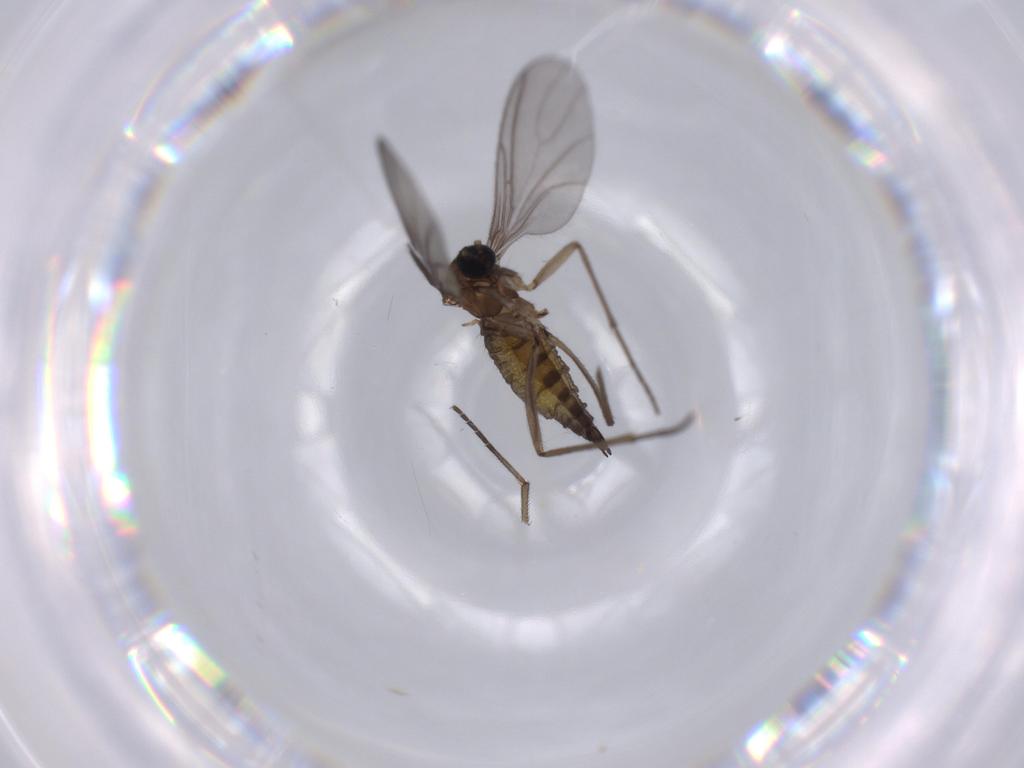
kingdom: Animalia
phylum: Arthropoda
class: Insecta
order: Diptera
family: Sciaridae
